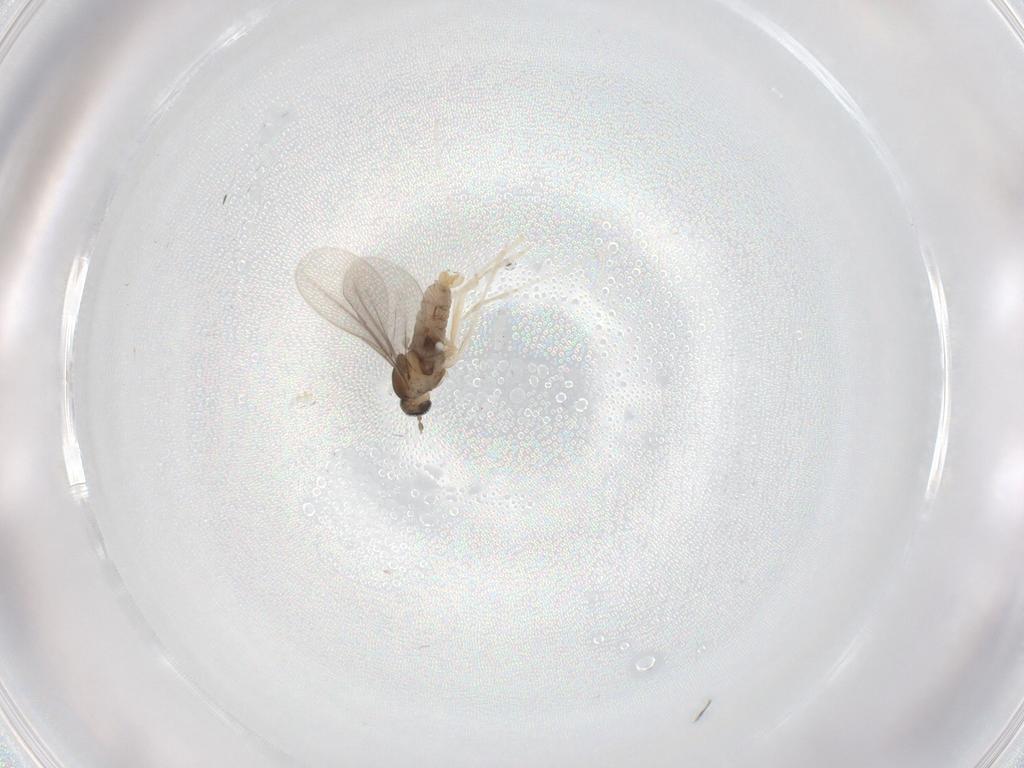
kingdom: Animalia
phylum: Arthropoda
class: Insecta
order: Diptera
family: Cecidomyiidae
